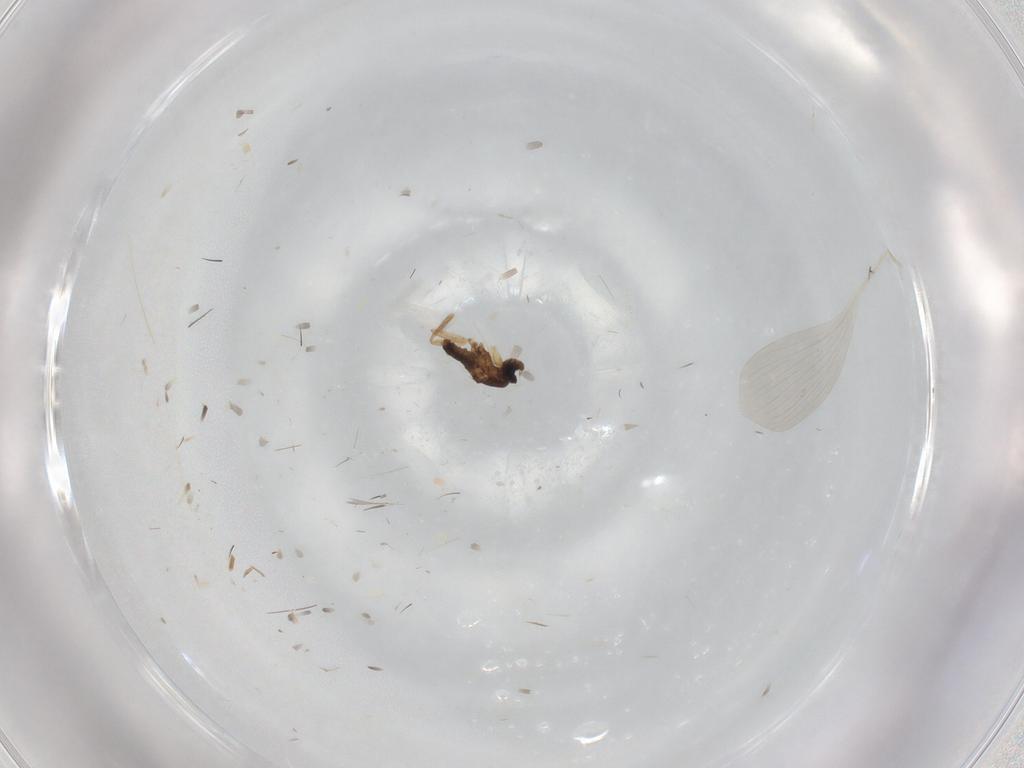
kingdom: Animalia
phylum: Arthropoda
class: Insecta
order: Diptera
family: Phoridae
